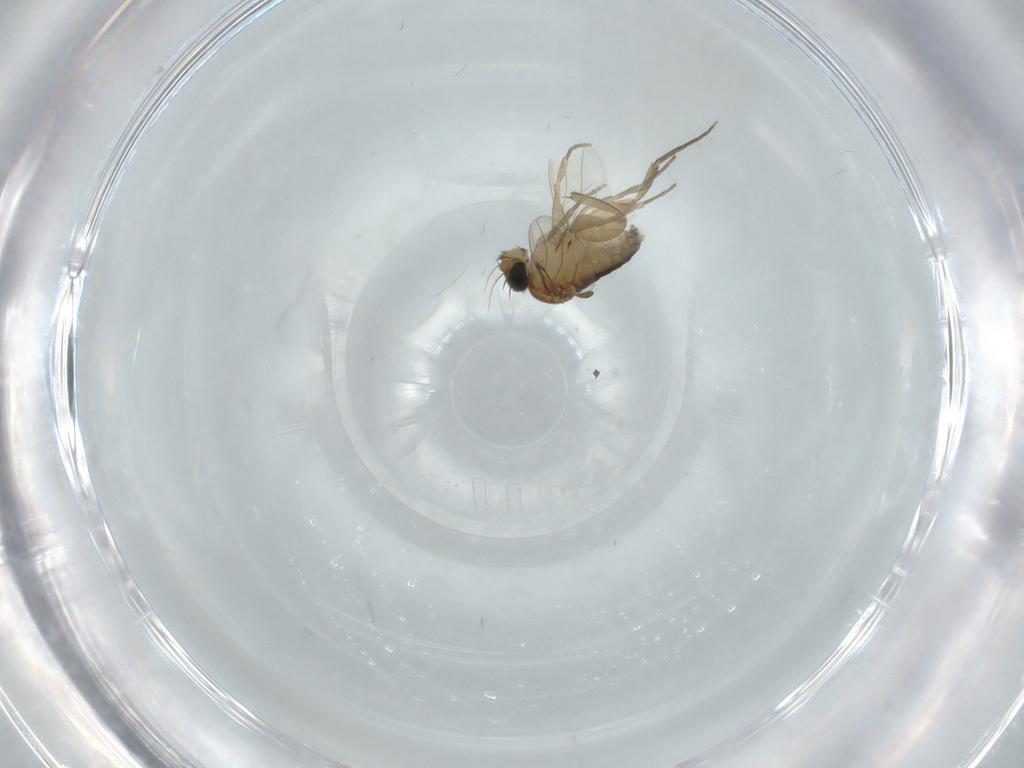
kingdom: Animalia
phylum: Arthropoda
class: Insecta
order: Diptera
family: Phoridae
